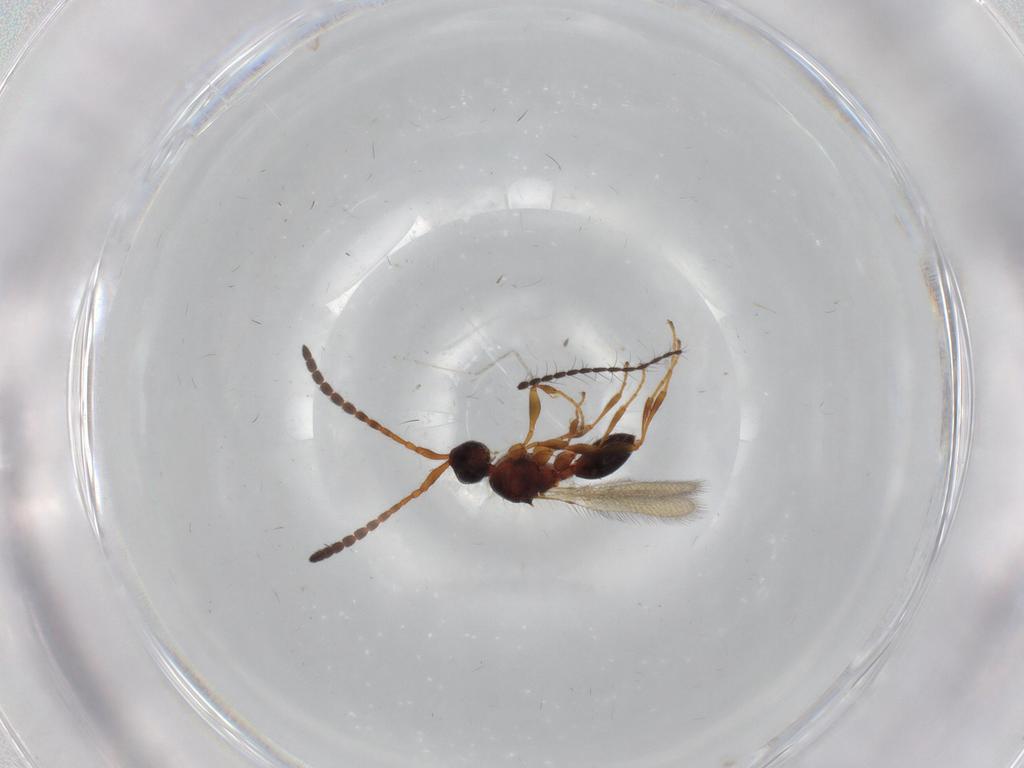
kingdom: Animalia
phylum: Arthropoda
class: Insecta
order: Hymenoptera
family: Diapriidae
